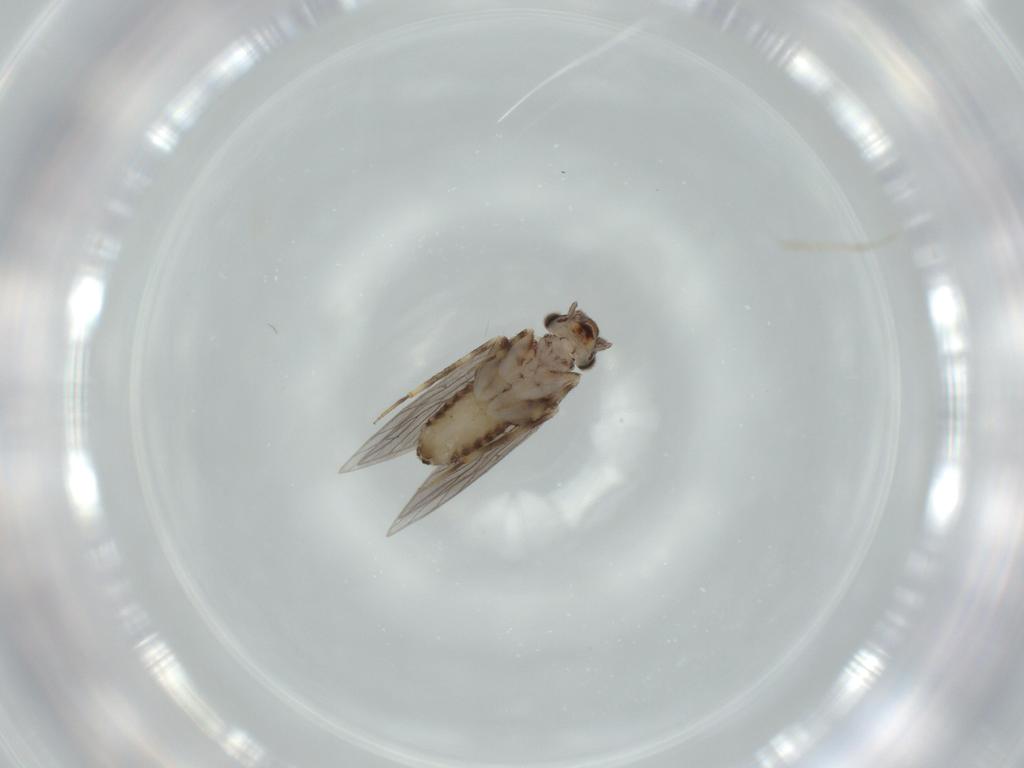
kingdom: Animalia
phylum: Arthropoda
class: Insecta
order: Psocodea
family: Lepidopsocidae
